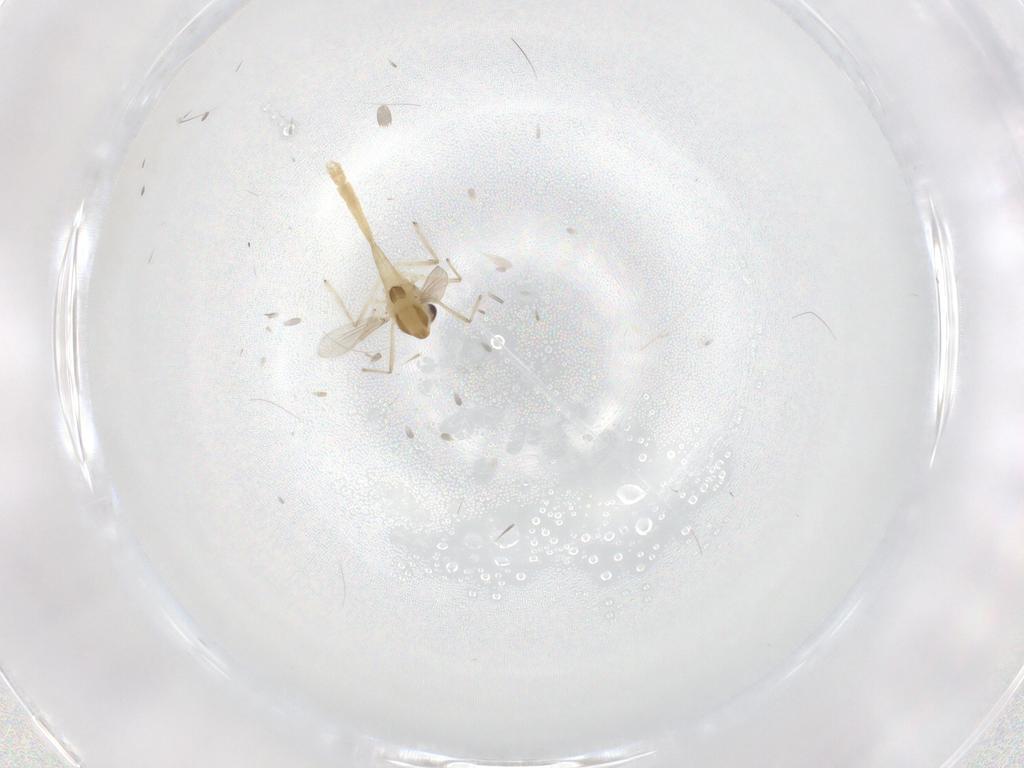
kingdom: Animalia
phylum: Arthropoda
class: Insecta
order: Diptera
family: Chironomidae
